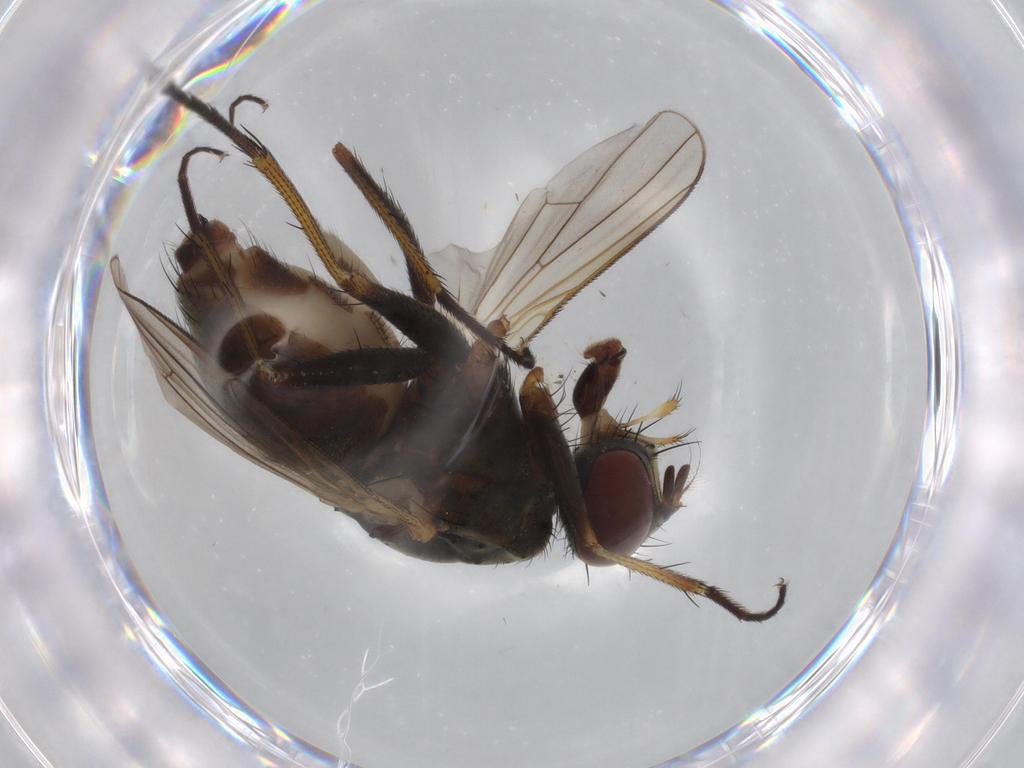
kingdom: Animalia
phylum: Arthropoda
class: Insecta
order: Diptera
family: Muscidae
